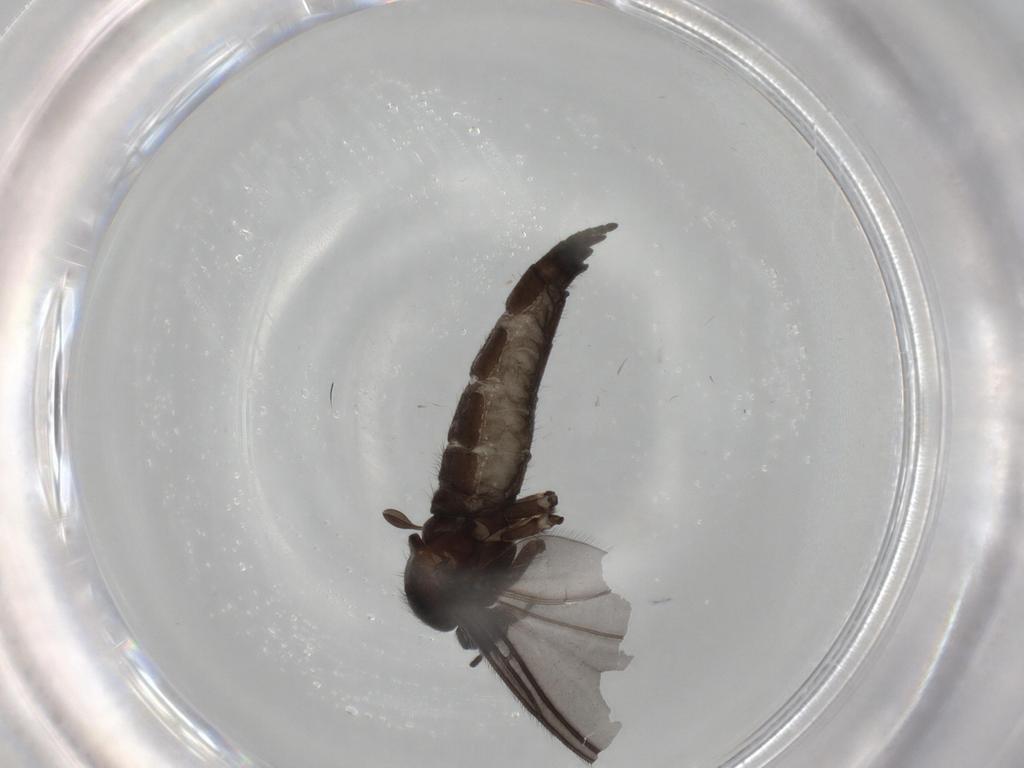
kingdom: Animalia
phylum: Arthropoda
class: Insecta
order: Diptera
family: Sciaridae
